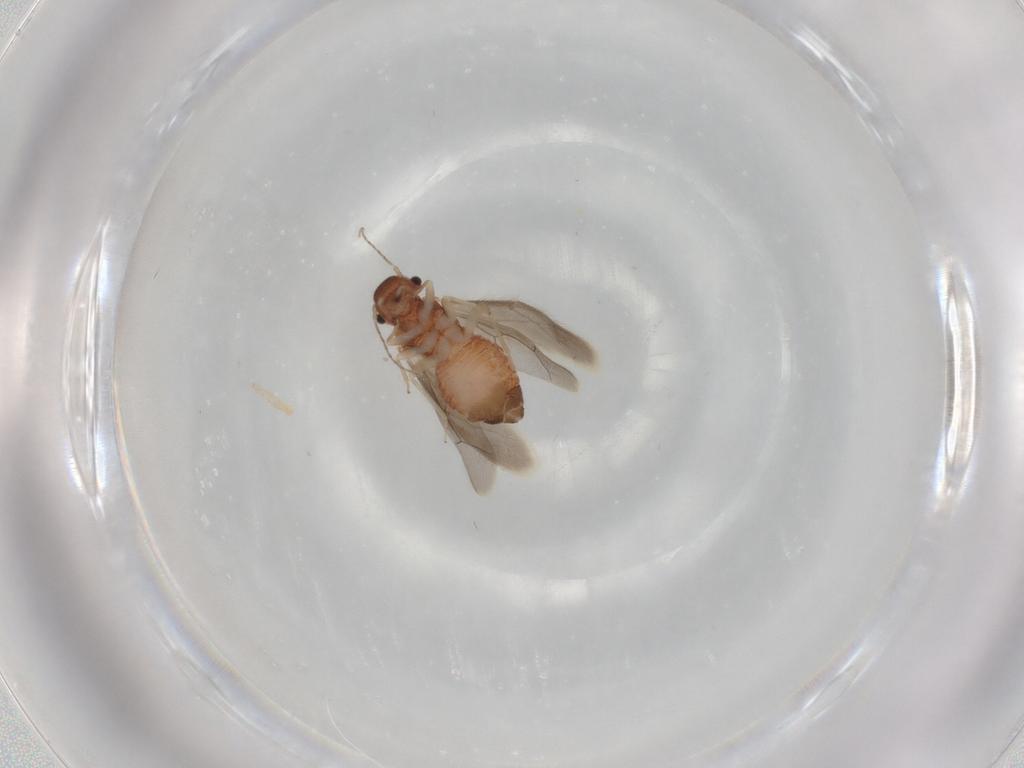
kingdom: Animalia
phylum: Arthropoda
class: Insecta
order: Psocodea
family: Archipsocidae
